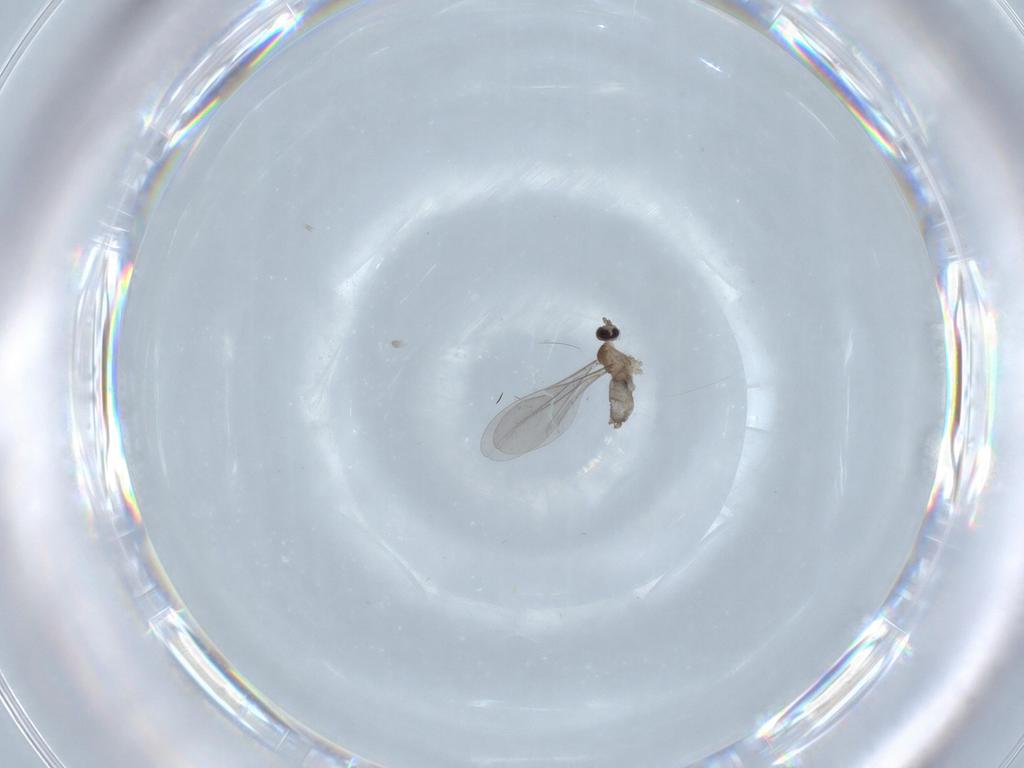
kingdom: Animalia
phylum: Arthropoda
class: Insecta
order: Diptera
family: Cecidomyiidae
